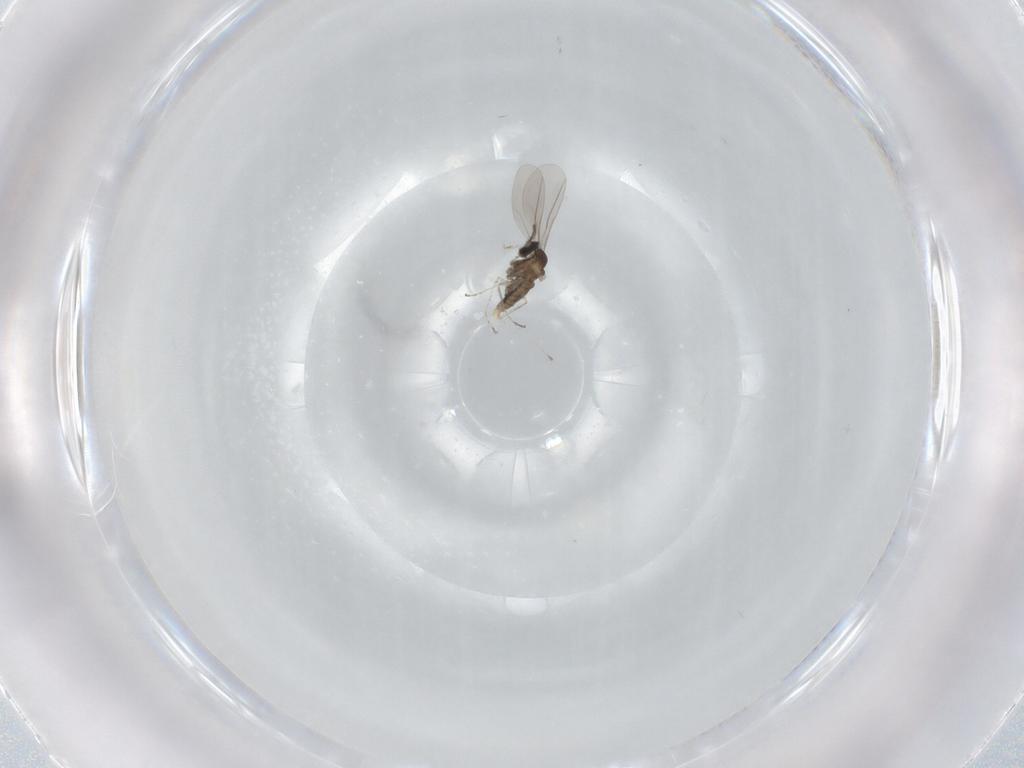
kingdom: Animalia
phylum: Arthropoda
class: Insecta
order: Diptera
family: Cecidomyiidae
